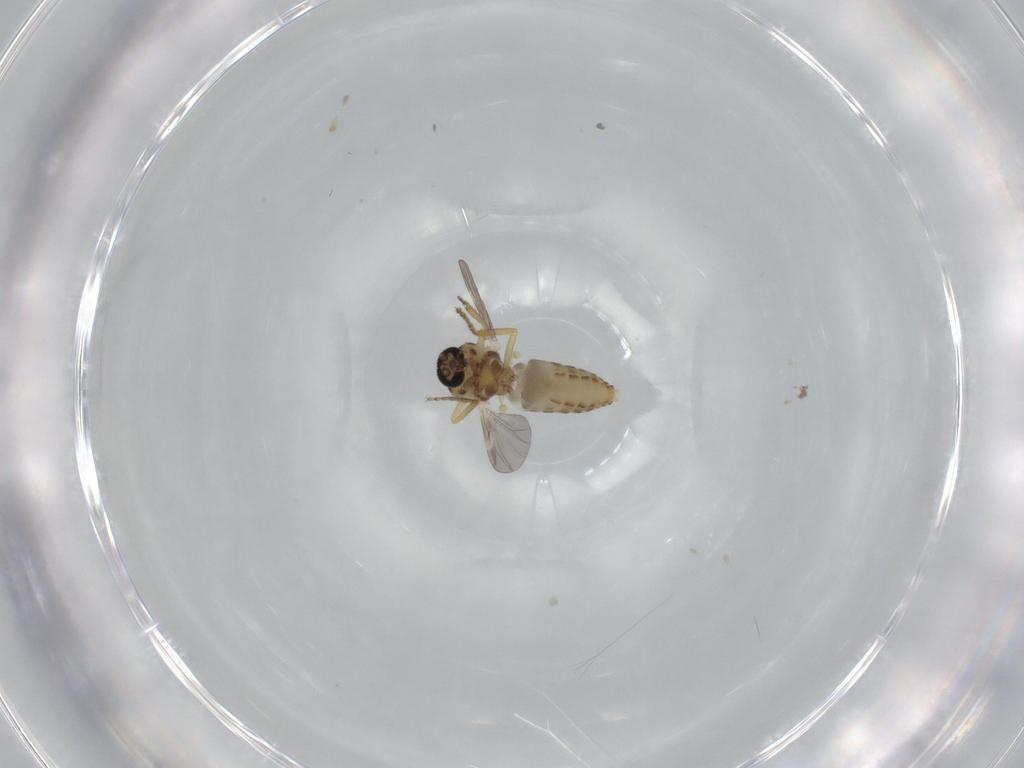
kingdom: Animalia
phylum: Arthropoda
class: Insecta
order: Diptera
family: Ceratopogonidae
